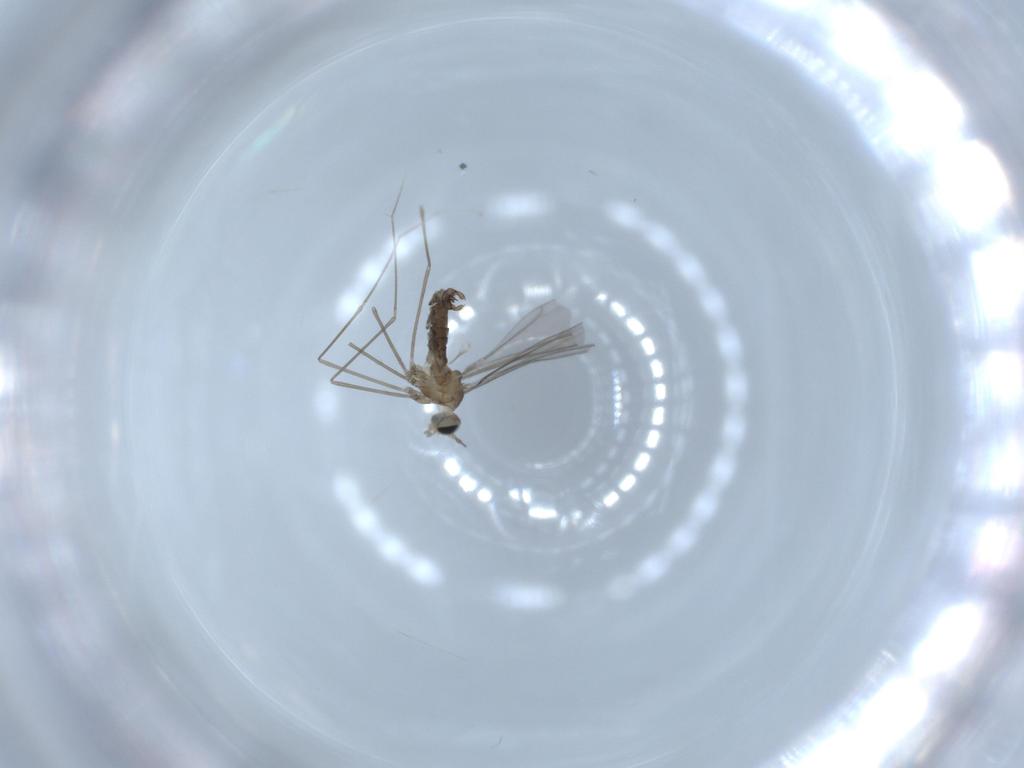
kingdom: Animalia
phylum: Arthropoda
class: Insecta
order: Diptera
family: Cecidomyiidae
